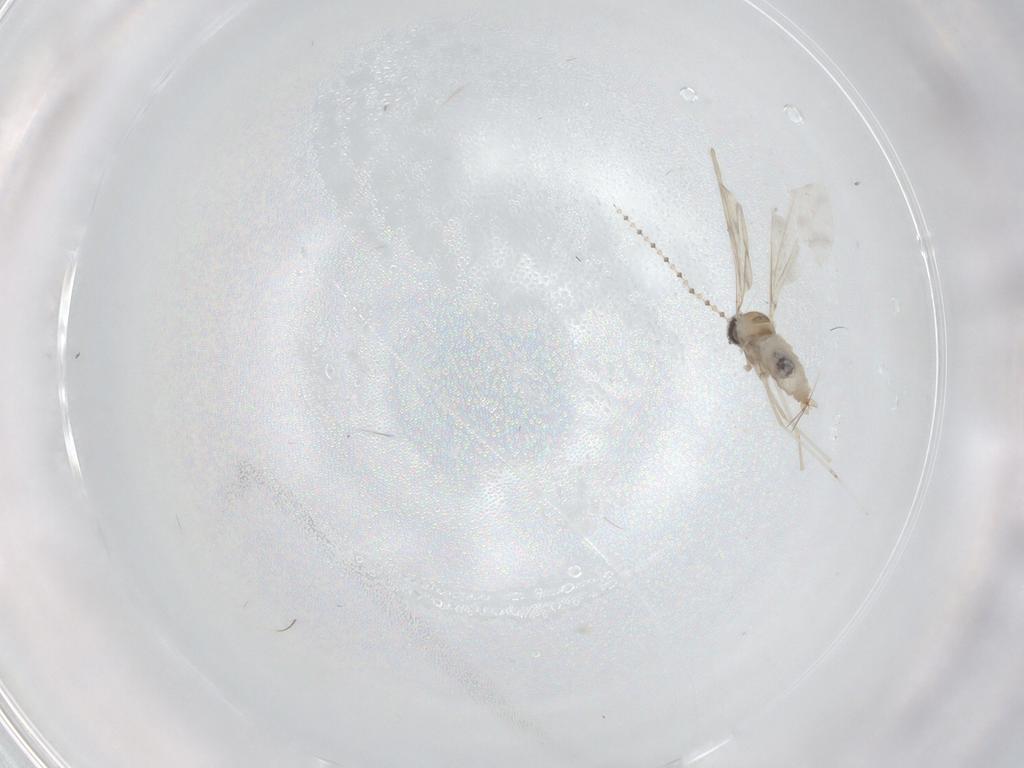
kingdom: Animalia
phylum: Arthropoda
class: Insecta
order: Diptera
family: Cecidomyiidae
